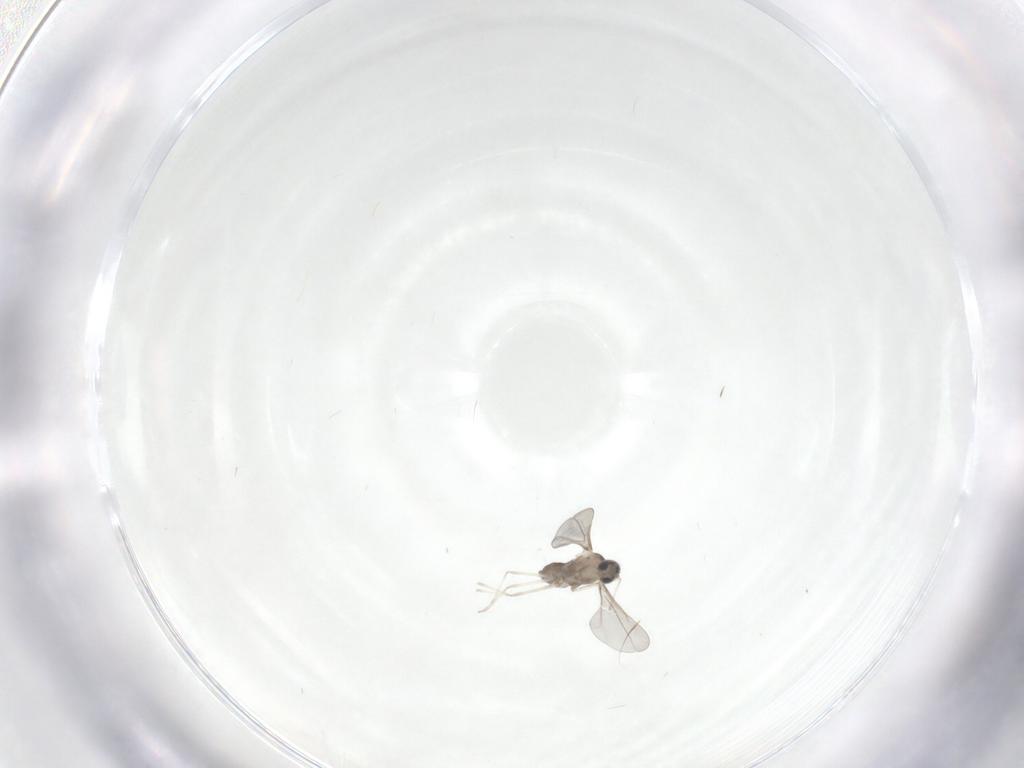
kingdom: Animalia
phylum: Arthropoda
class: Insecta
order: Diptera
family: Cecidomyiidae
